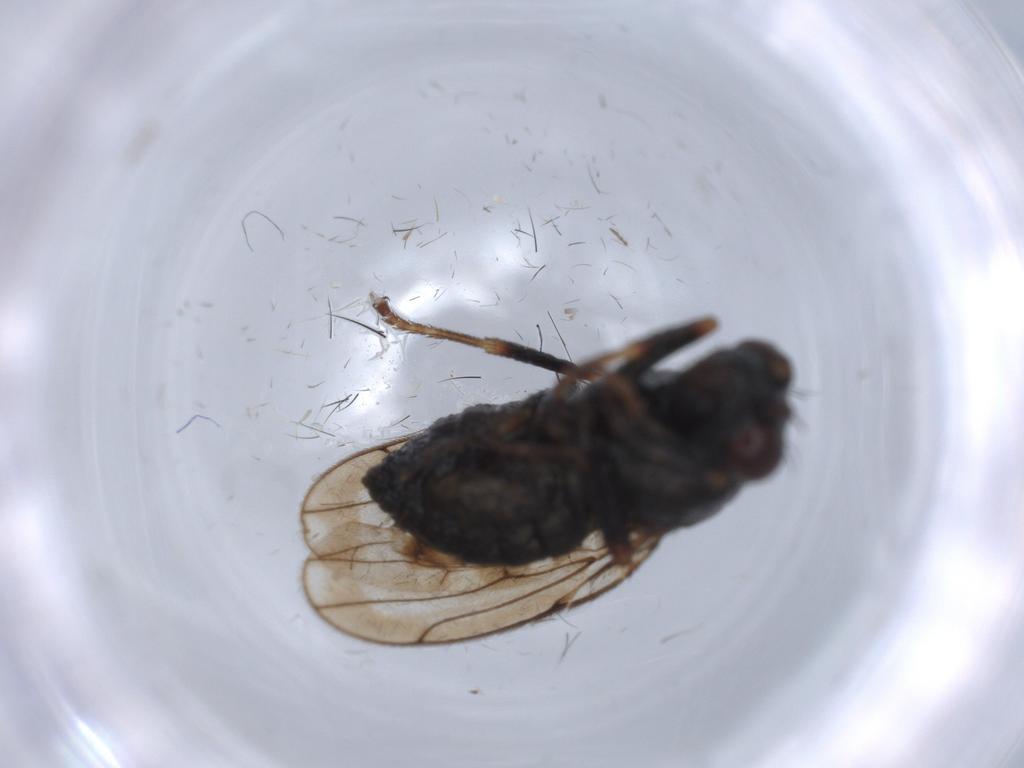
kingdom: Animalia
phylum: Arthropoda
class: Insecta
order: Diptera
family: Ephydridae
